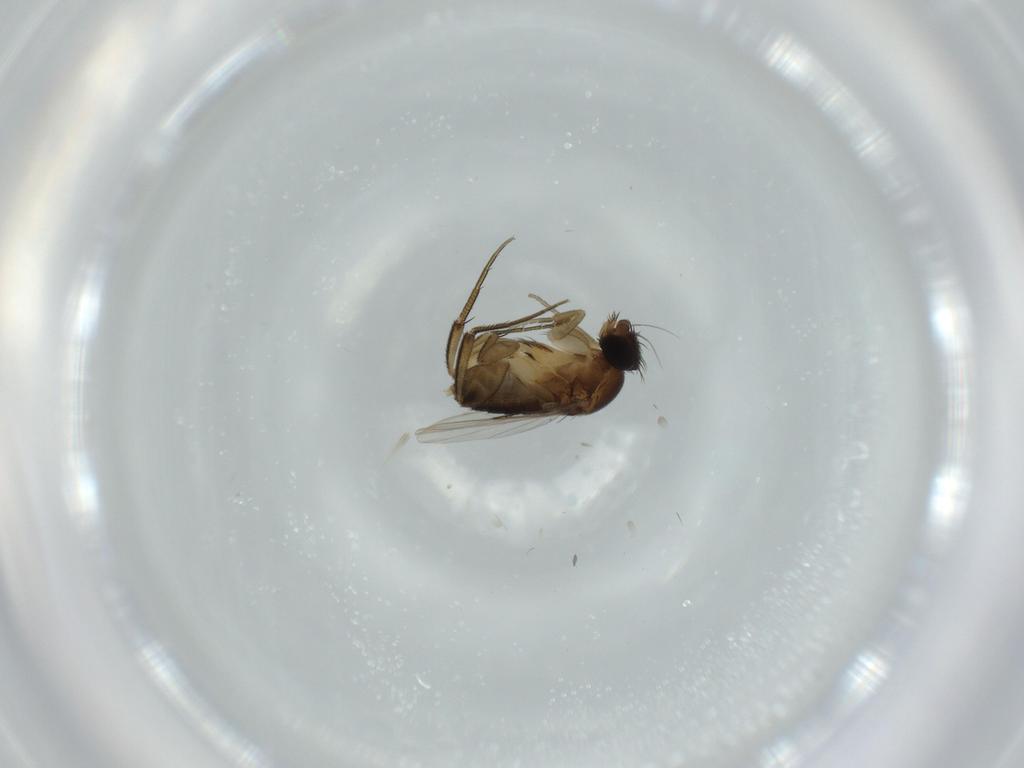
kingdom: Animalia
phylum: Arthropoda
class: Insecta
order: Diptera
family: Phoridae
